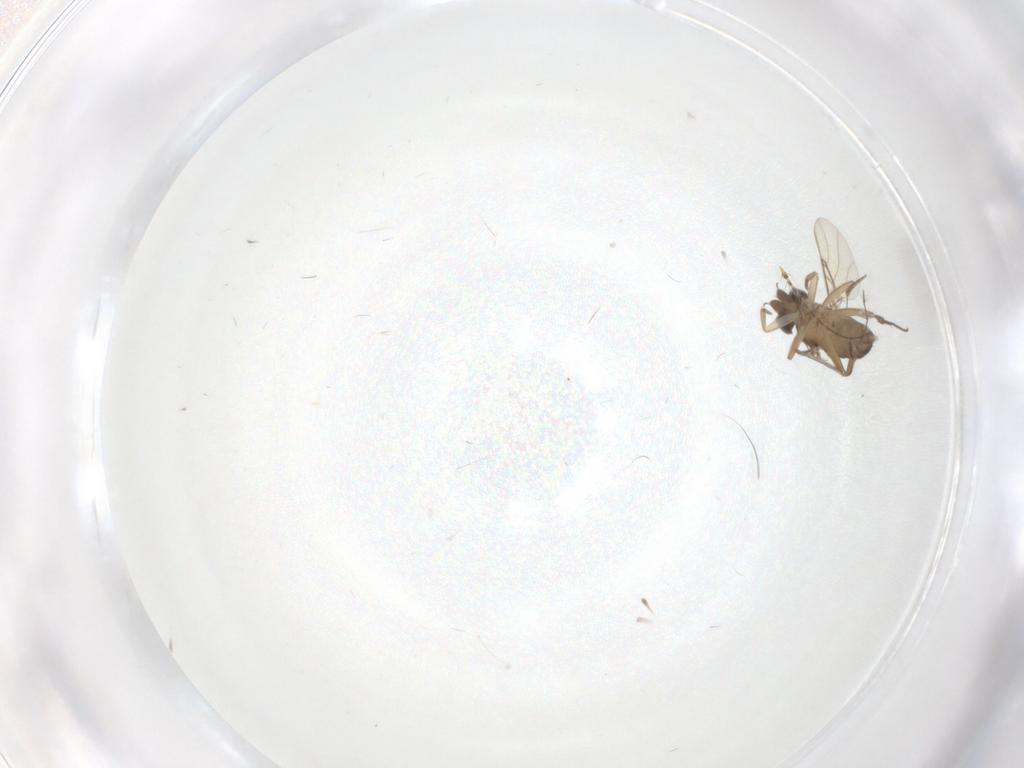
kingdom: Animalia
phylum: Arthropoda
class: Insecta
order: Diptera
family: Phoridae
